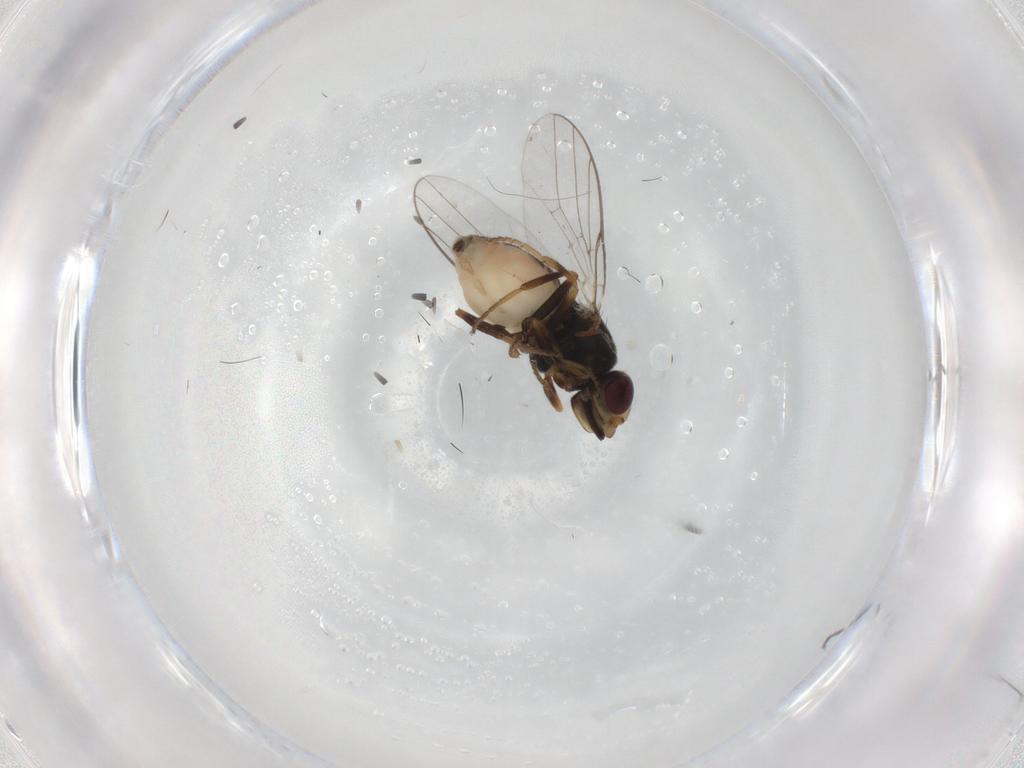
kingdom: Animalia
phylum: Arthropoda
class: Insecta
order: Diptera
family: Chloropidae
